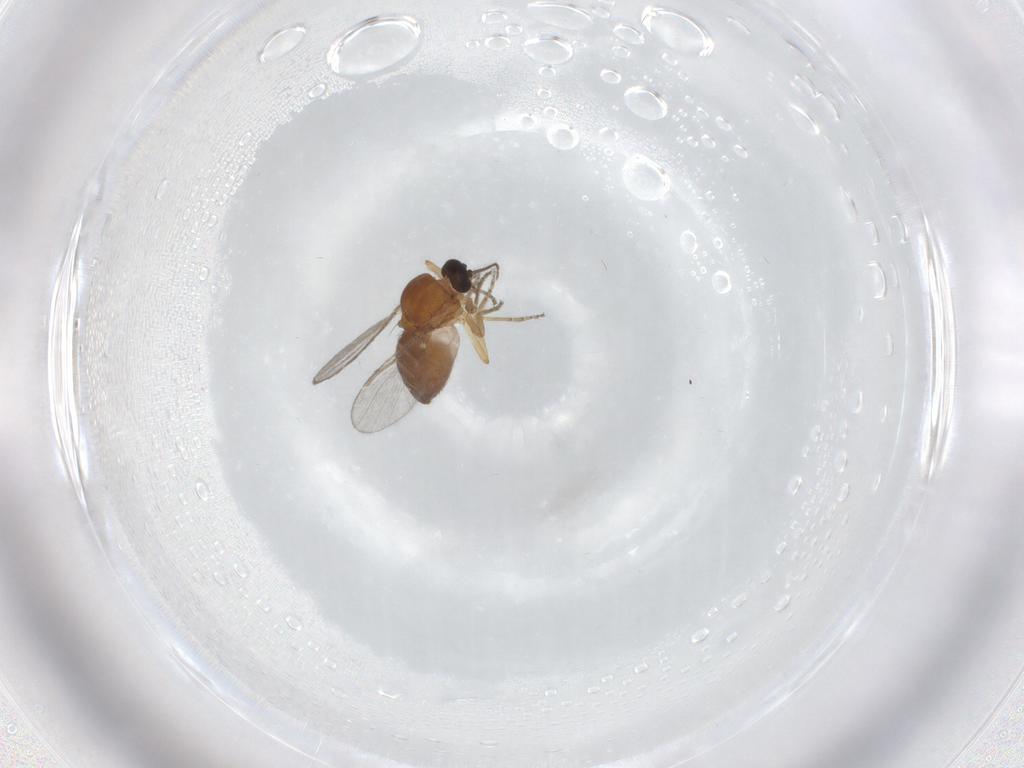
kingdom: Animalia
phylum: Arthropoda
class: Insecta
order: Diptera
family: Ceratopogonidae
